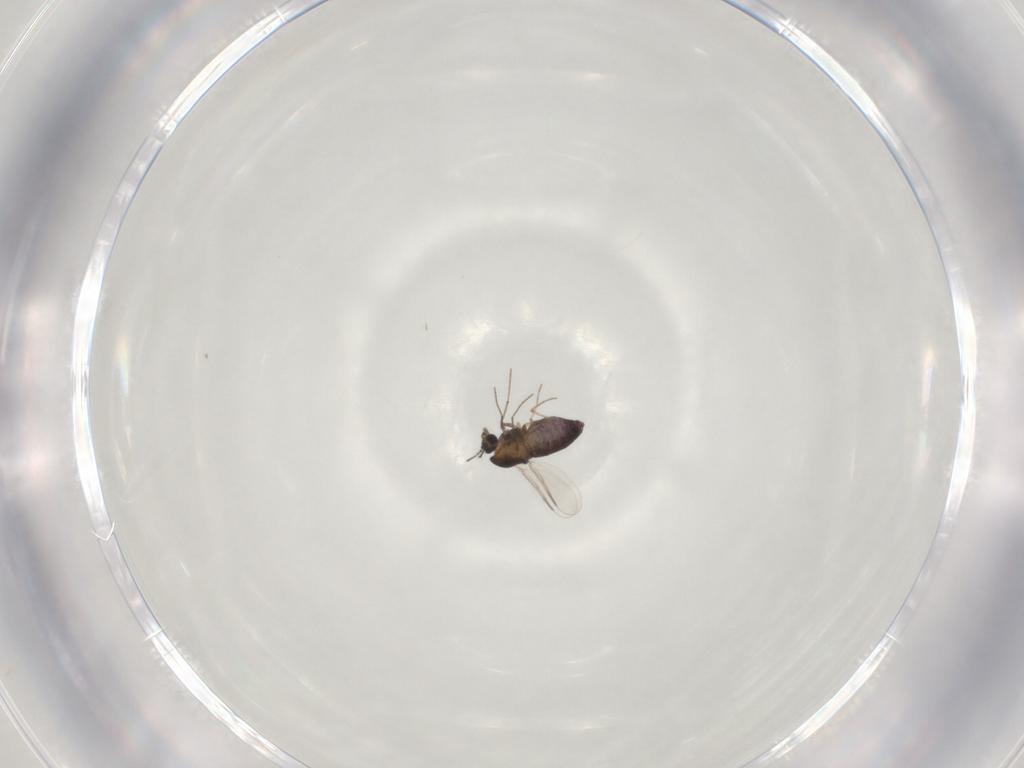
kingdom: Animalia
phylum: Arthropoda
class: Insecta
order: Diptera
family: Chironomidae
